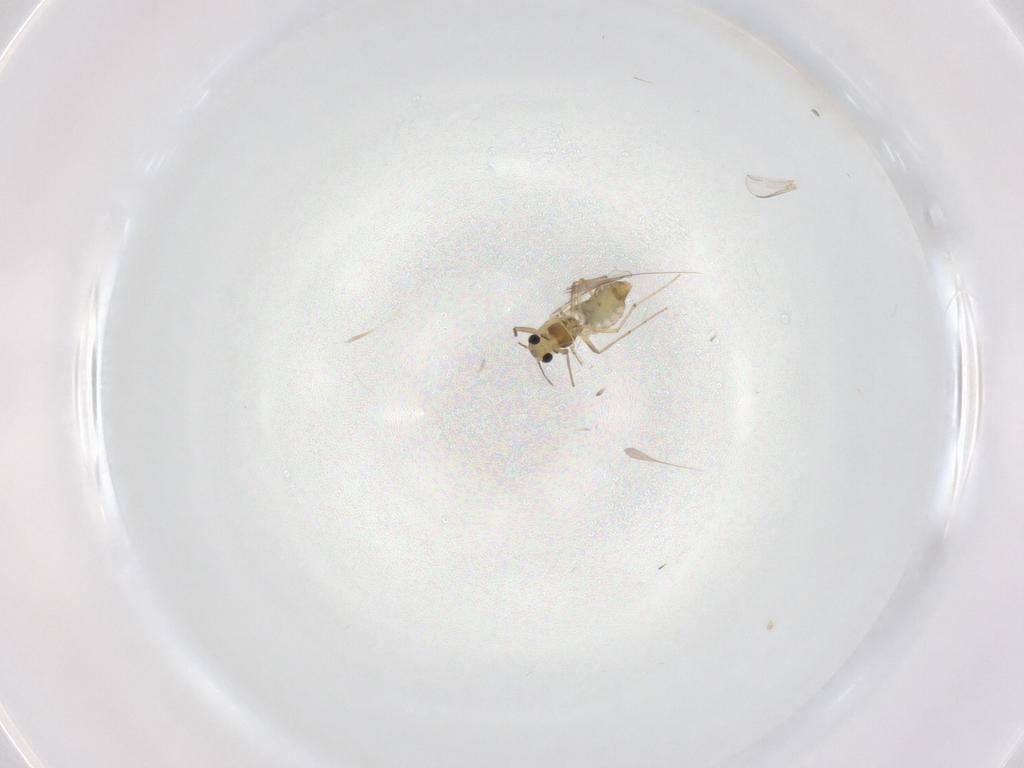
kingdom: Animalia
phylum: Arthropoda
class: Insecta
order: Diptera
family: Chironomidae
